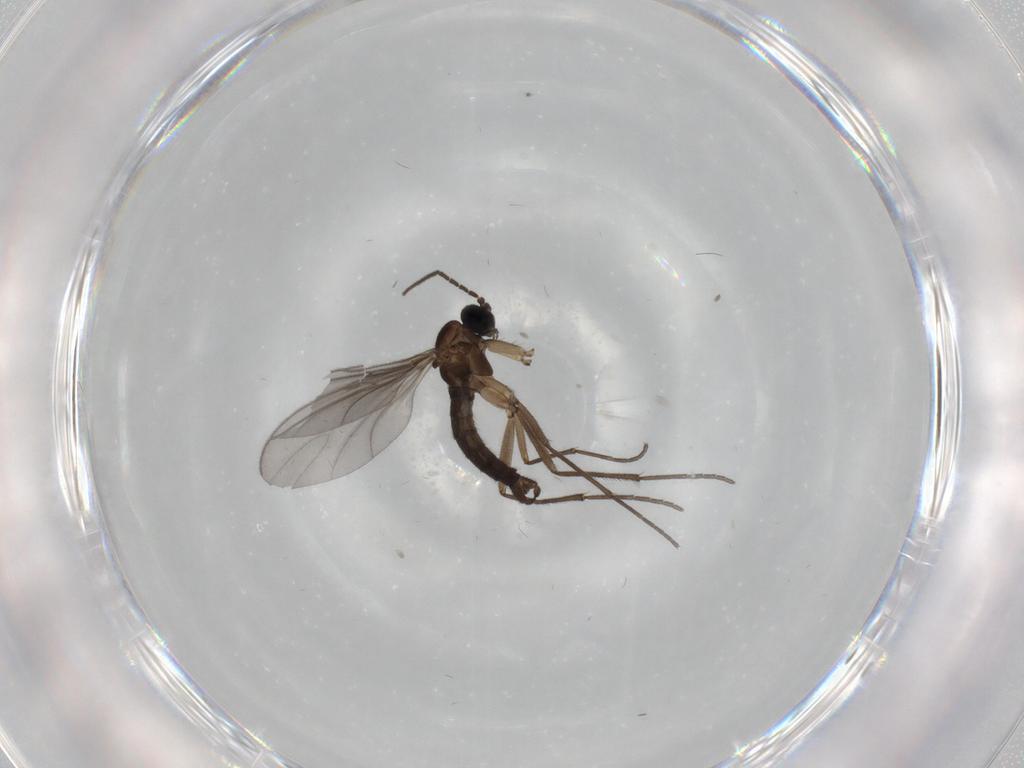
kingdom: Animalia
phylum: Arthropoda
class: Insecta
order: Diptera
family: Sciaridae
